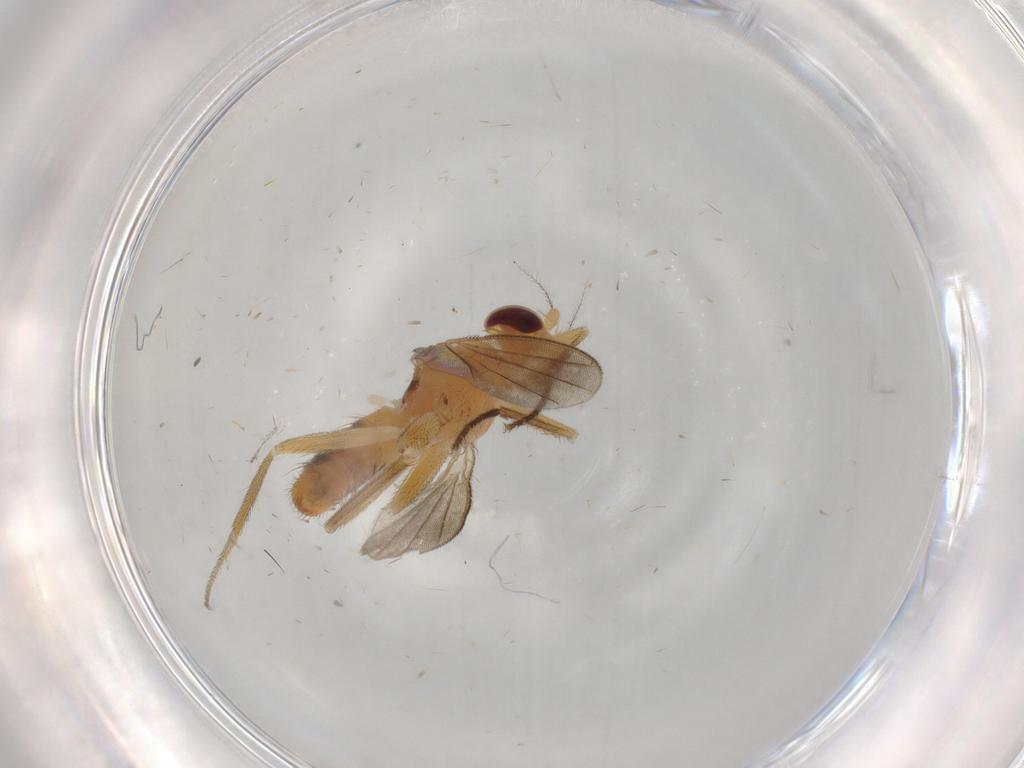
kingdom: Animalia
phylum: Arthropoda
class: Insecta
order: Diptera
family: Clusiidae
